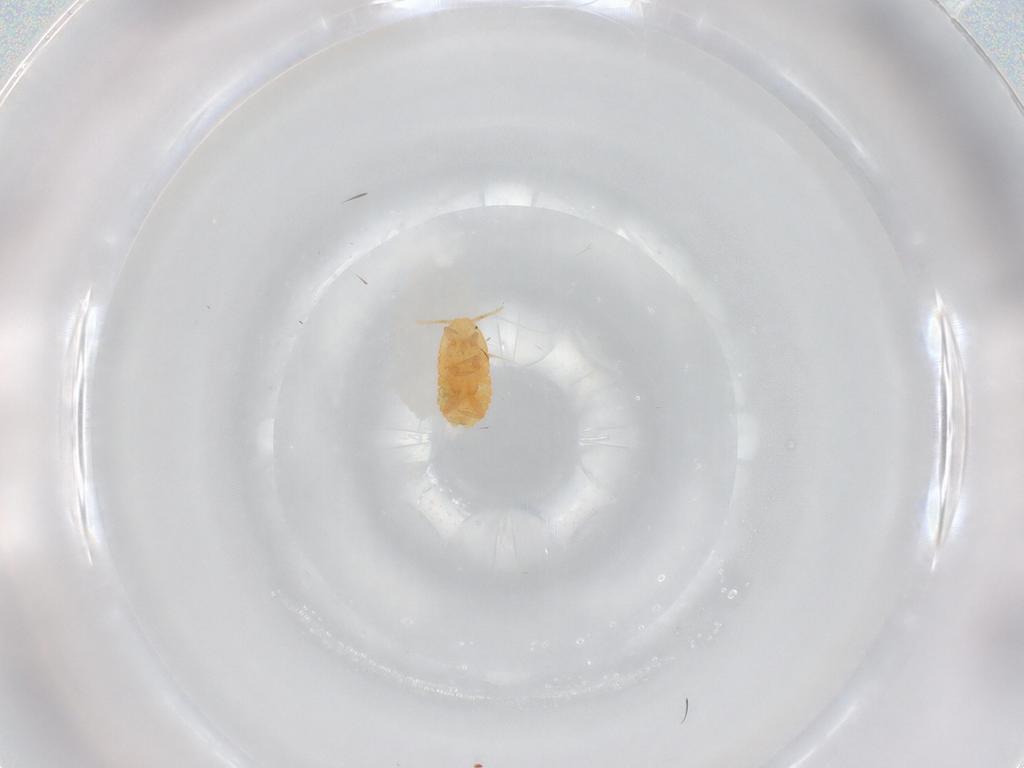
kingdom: Animalia
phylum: Arthropoda
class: Insecta
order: Hemiptera
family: Pseudococcidae
